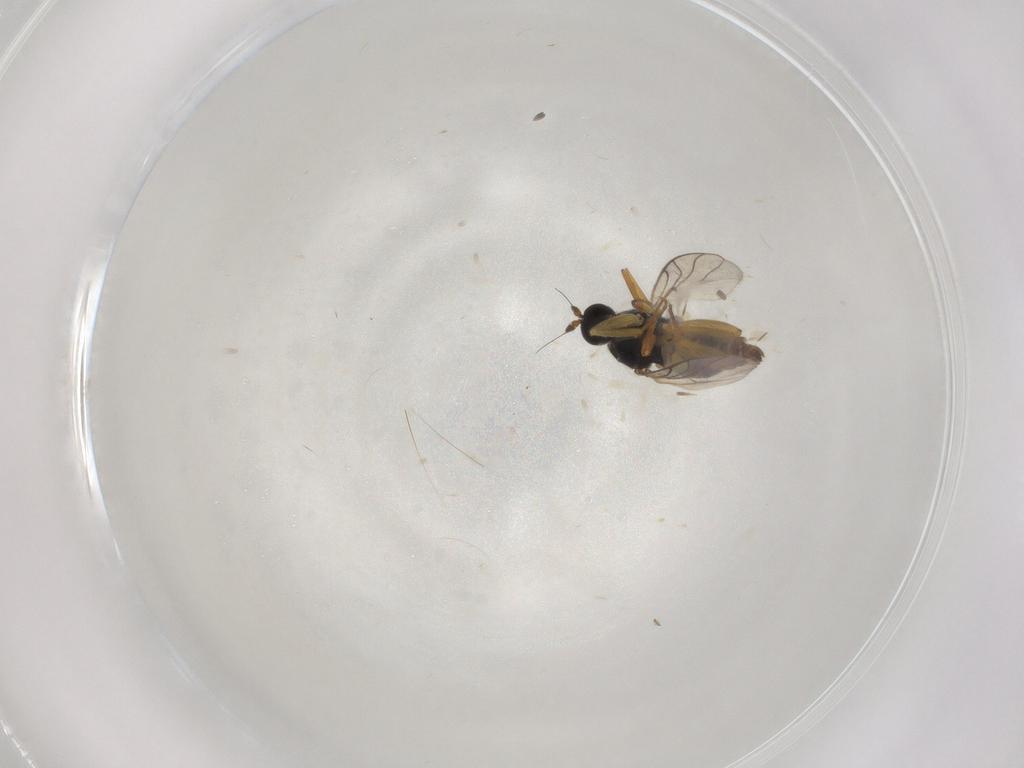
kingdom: Animalia
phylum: Arthropoda
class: Insecta
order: Diptera
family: Hybotidae
